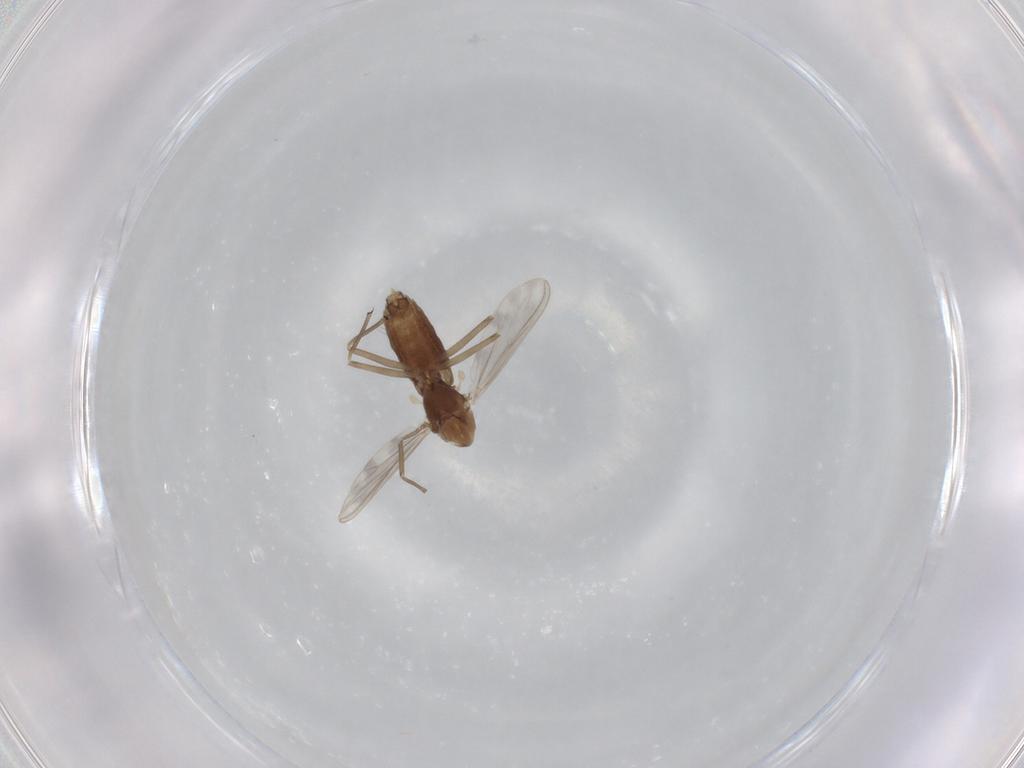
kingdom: Animalia
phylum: Arthropoda
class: Insecta
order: Diptera
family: Chironomidae
